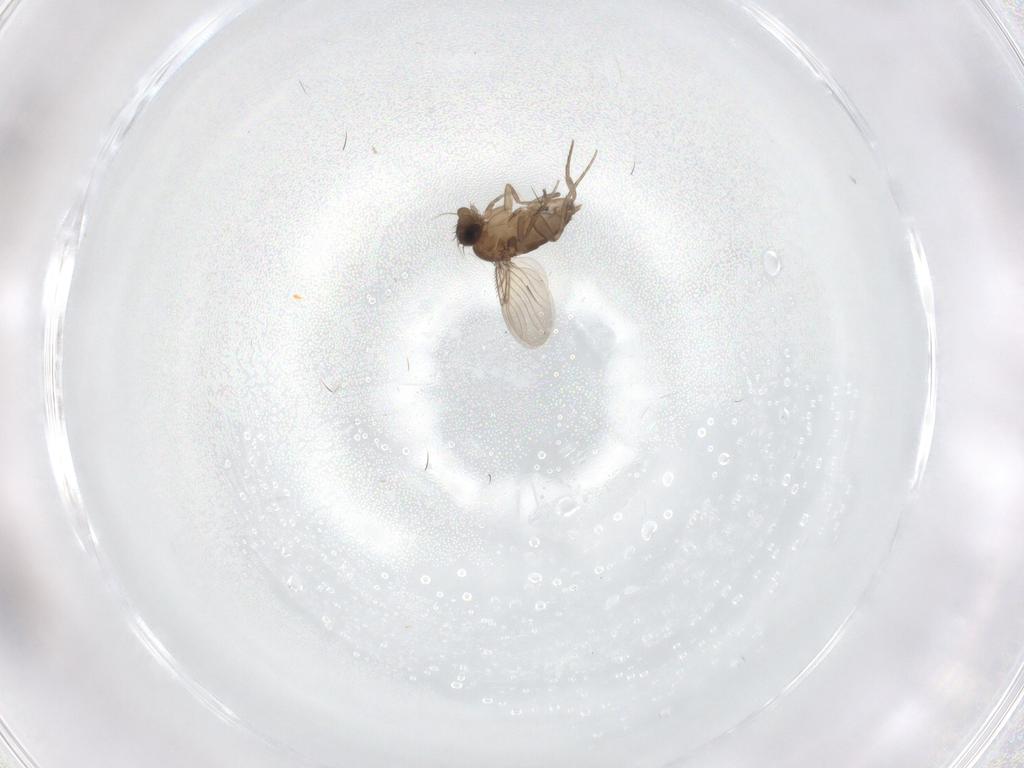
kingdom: Animalia
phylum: Arthropoda
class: Insecta
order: Diptera
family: Phoridae
